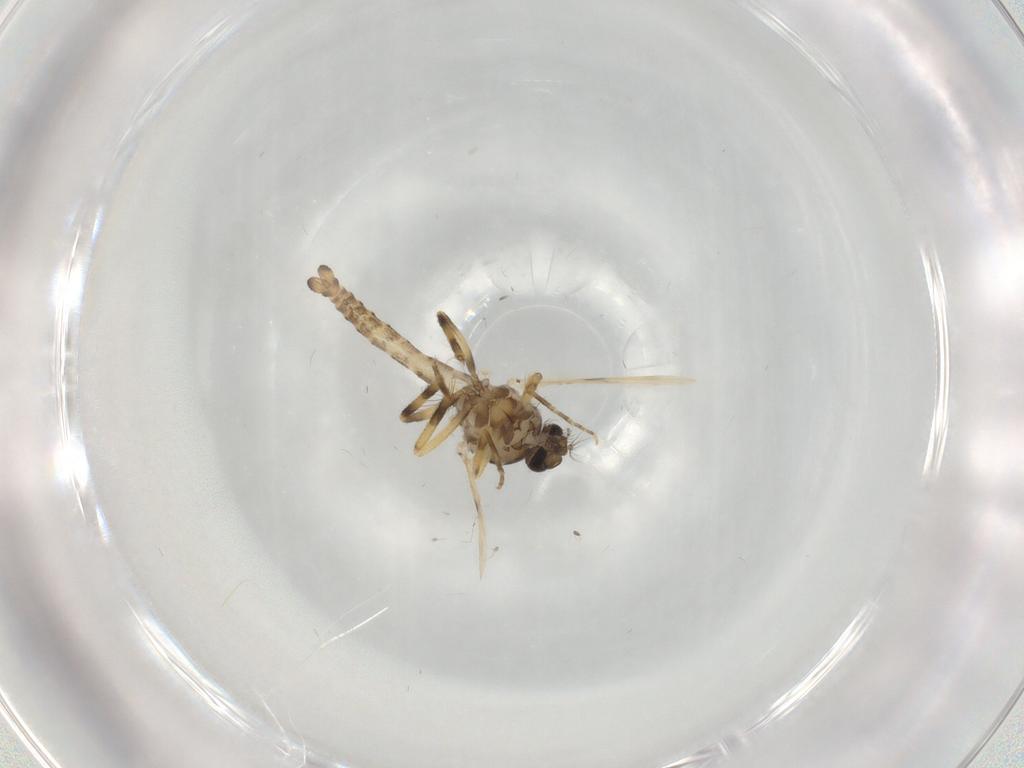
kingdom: Animalia
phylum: Arthropoda
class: Insecta
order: Diptera
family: Ceratopogonidae
